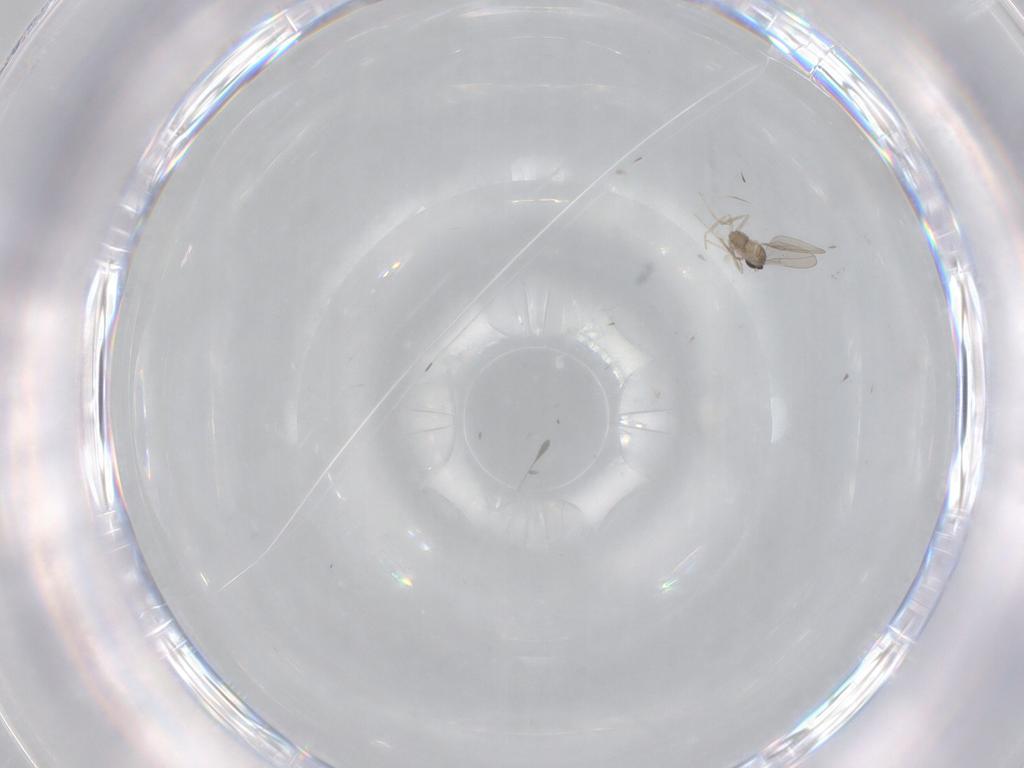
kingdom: Animalia
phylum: Arthropoda
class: Insecta
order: Diptera
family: Cecidomyiidae
